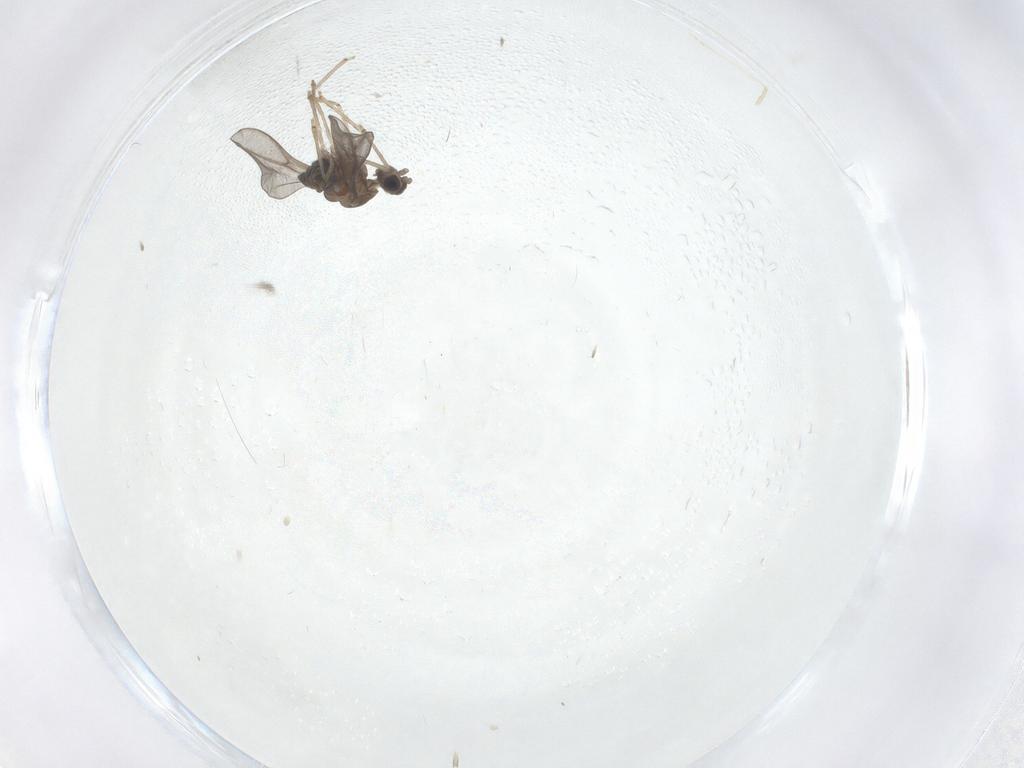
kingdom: Animalia
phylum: Arthropoda
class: Insecta
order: Diptera
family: Cecidomyiidae
